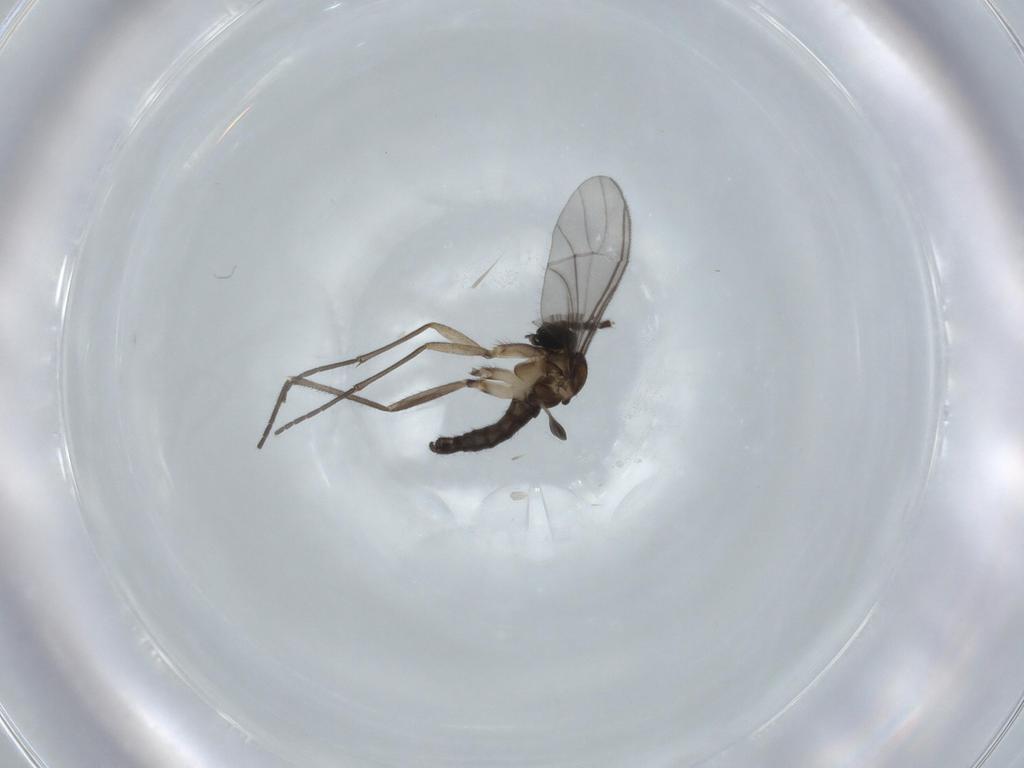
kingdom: Animalia
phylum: Arthropoda
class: Insecta
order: Diptera
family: Sciaridae
